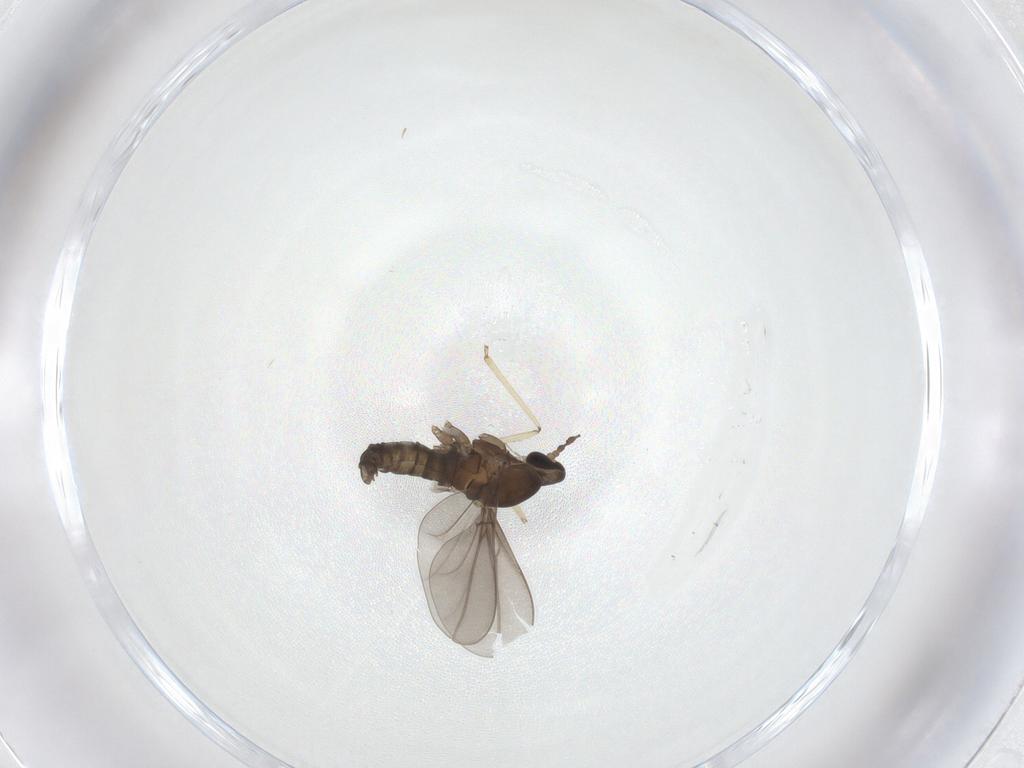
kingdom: Animalia
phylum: Arthropoda
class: Insecta
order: Diptera
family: Cecidomyiidae
